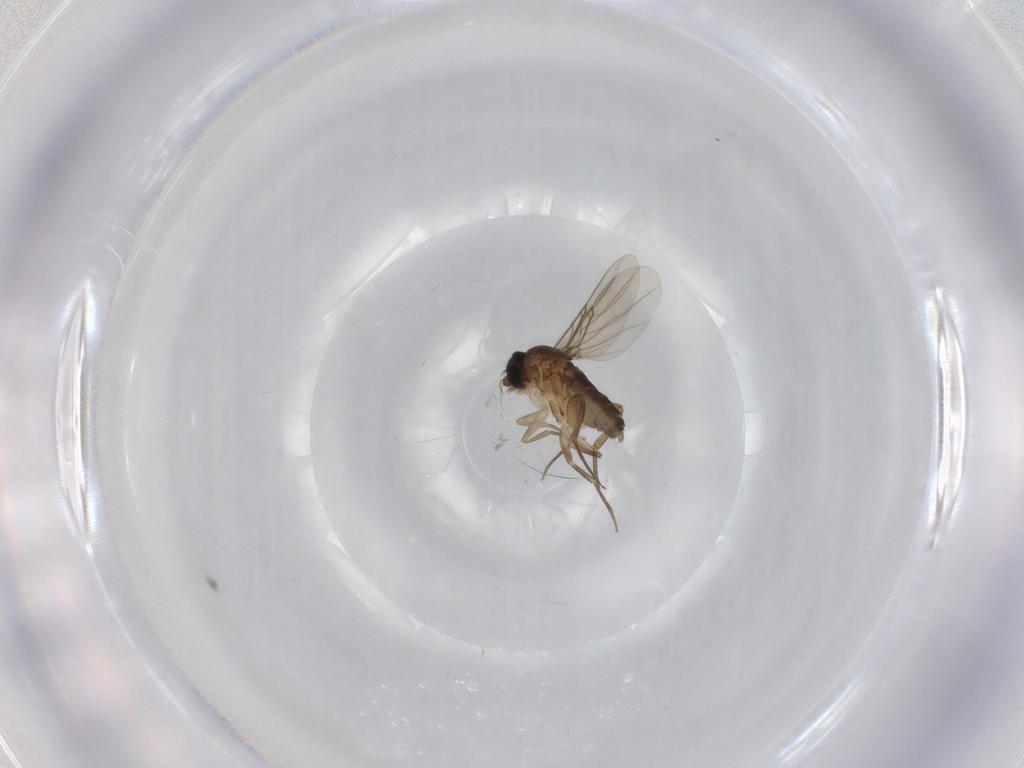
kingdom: Animalia
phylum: Arthropoda
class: Insecta
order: Diptera
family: Phoridae
